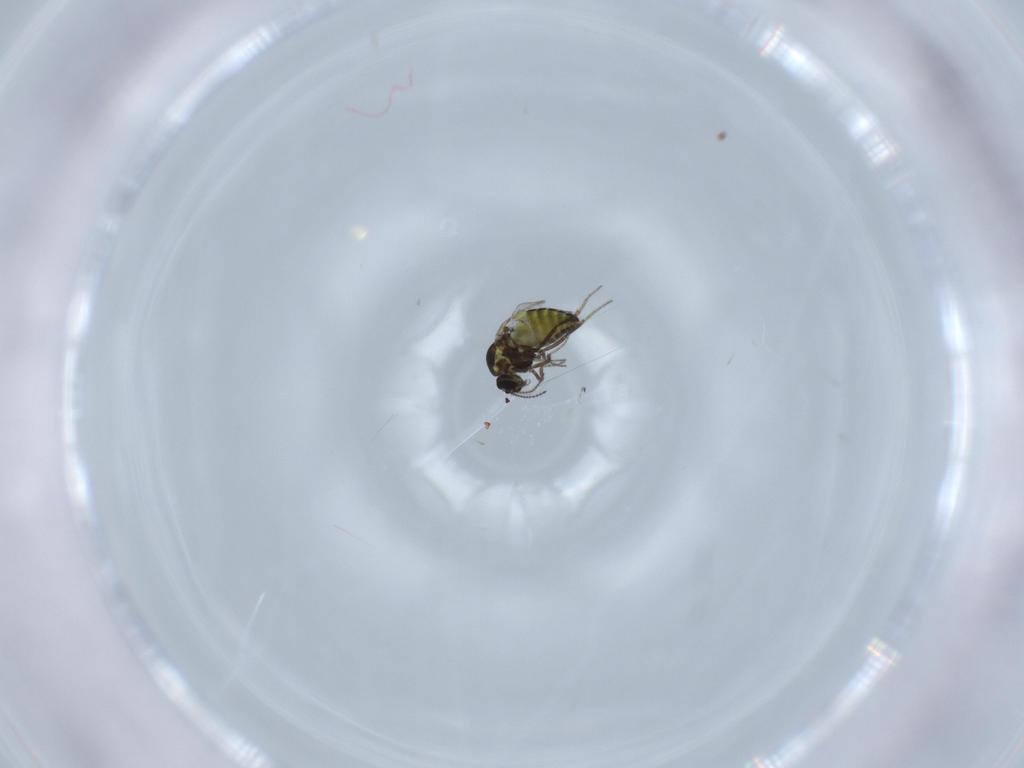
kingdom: Animalia
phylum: Arthropoda
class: Insecta
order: Diptera
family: Cecidomyiidae
